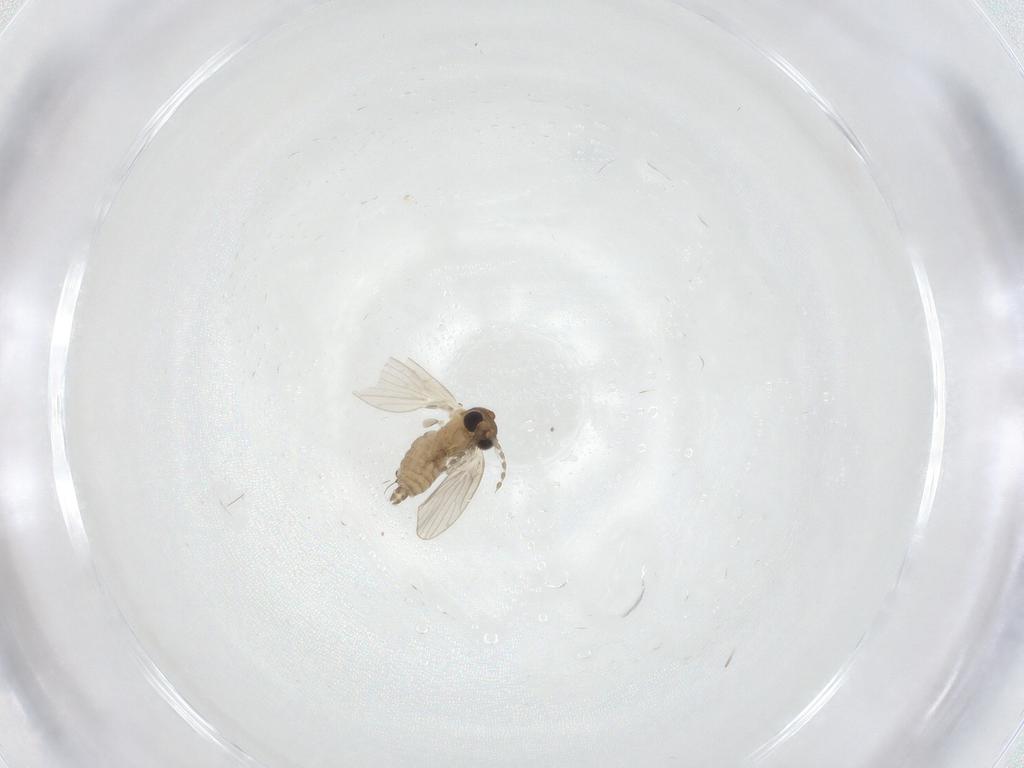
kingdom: Animalia
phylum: Arthropoda
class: Insecta
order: Diptera
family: Psychodidae
